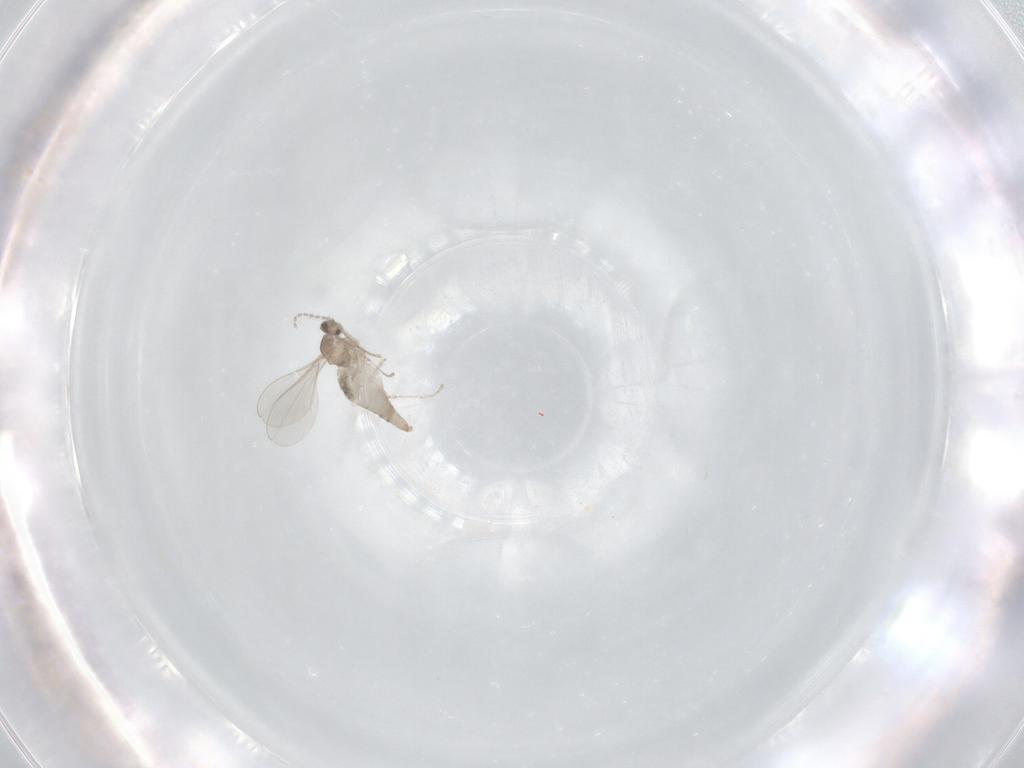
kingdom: Animalia
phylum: Arthropoda
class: Insecta
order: Diptera
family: Cecidomyiidae
